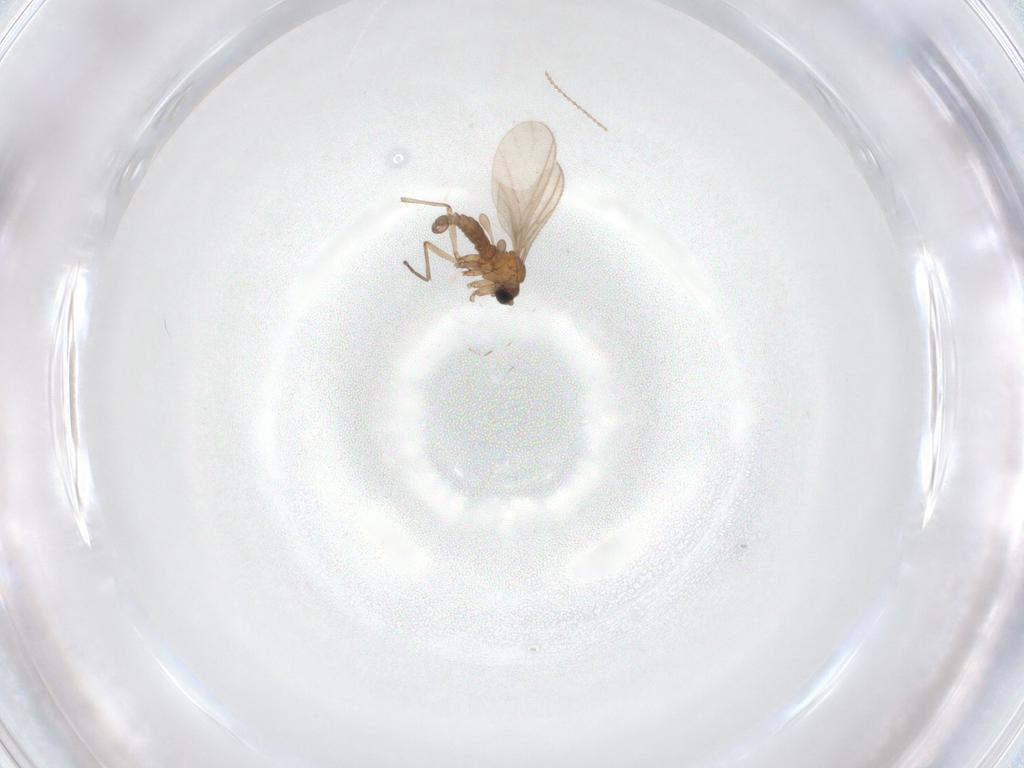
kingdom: Animalia
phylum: Arthropoda
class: Insecta
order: Diptera
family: Sciaridae
